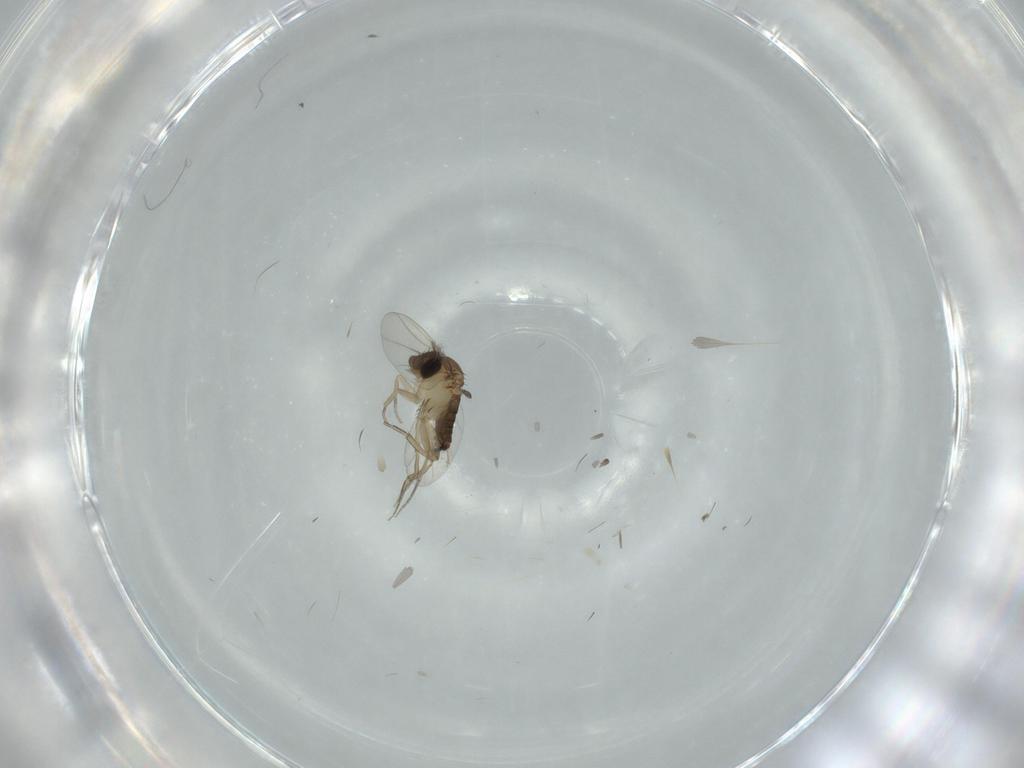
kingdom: Animalia
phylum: Arthropoda
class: Insecta
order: Diptera
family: Phoridae
